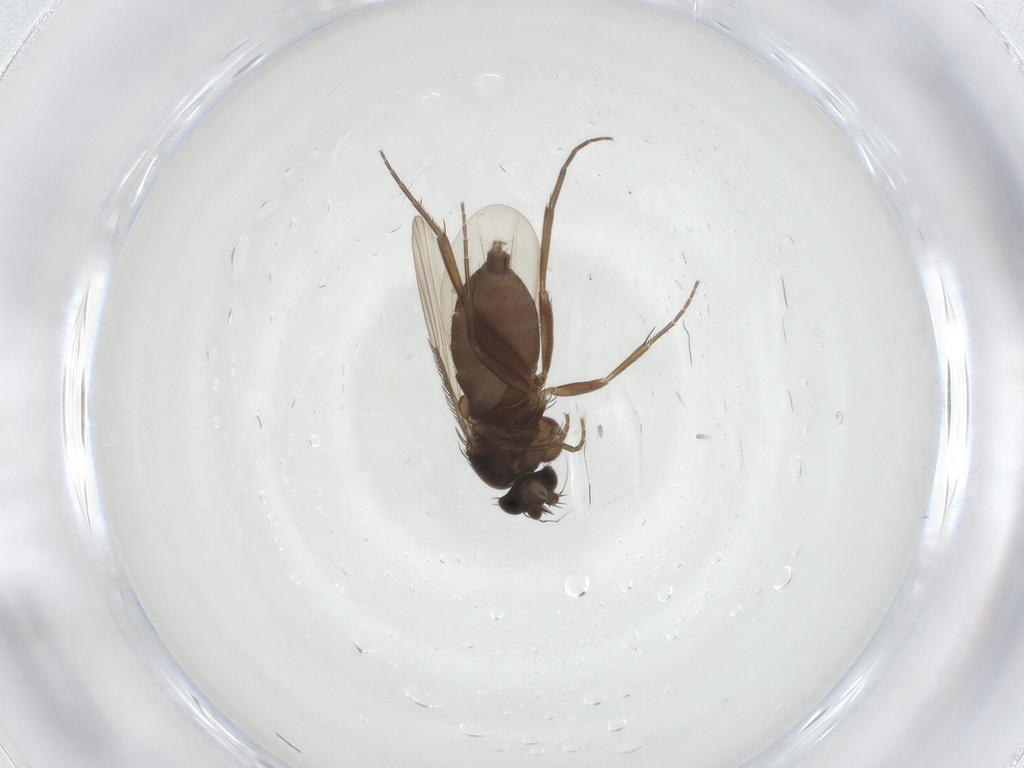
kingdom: Animalia
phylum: Arthropoda
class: Insecta
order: Diptera
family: Phoridae
